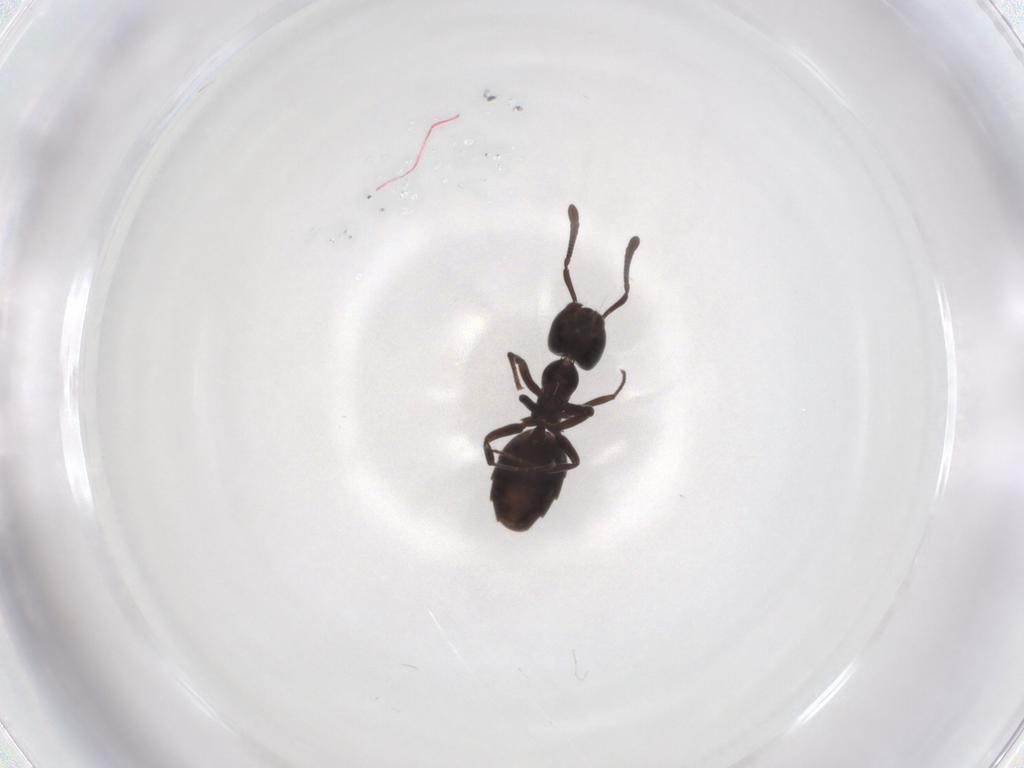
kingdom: Animalia
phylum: Arthropoda
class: Insecta
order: Hymenoptera
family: Formicidae
